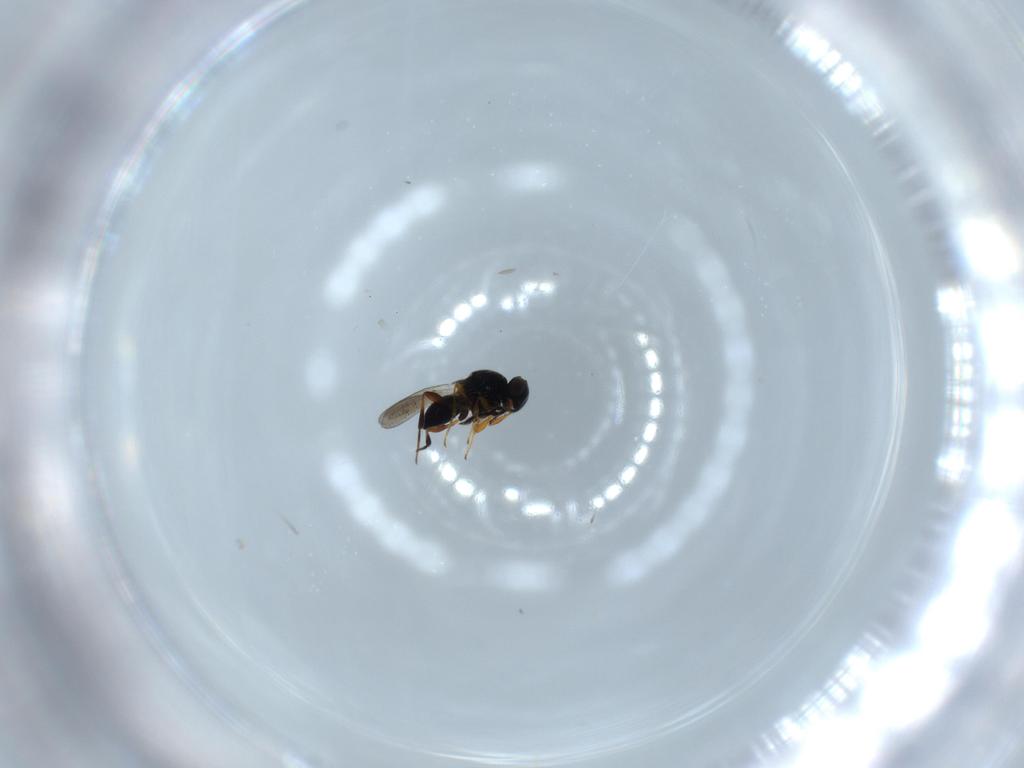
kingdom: Animalia
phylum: Arthropoda
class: Insecta
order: Hymenoptera
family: Platygastridae
